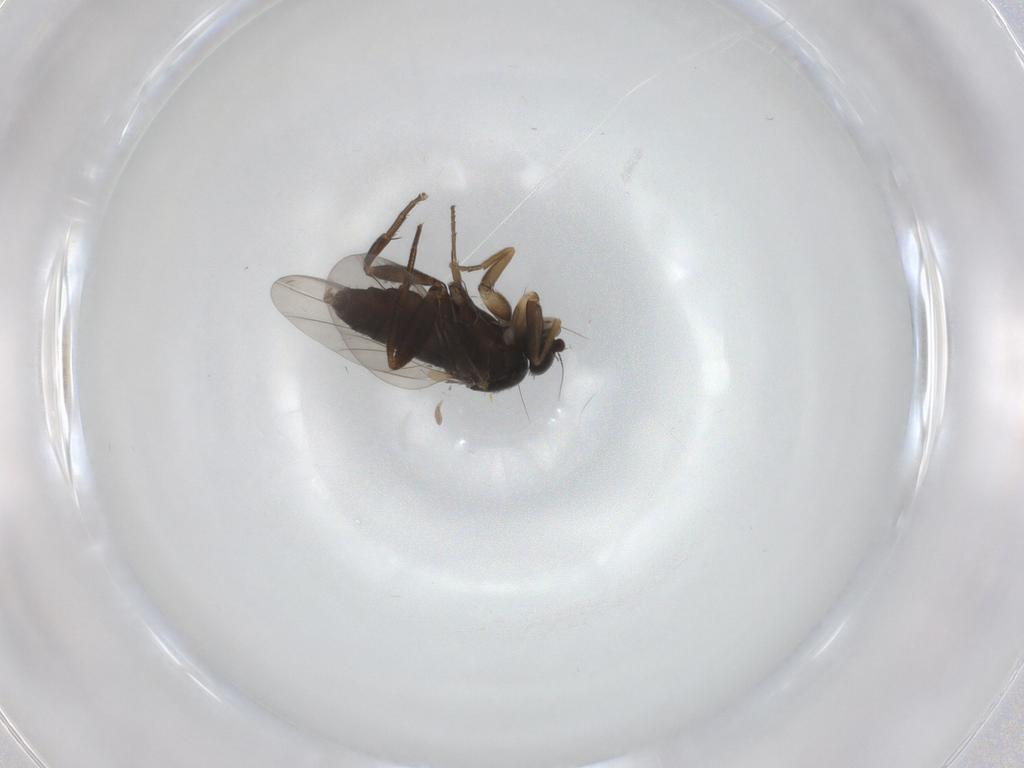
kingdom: Animalia
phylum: Arthropoda
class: Insecta
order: Diptera
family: Phoridae
